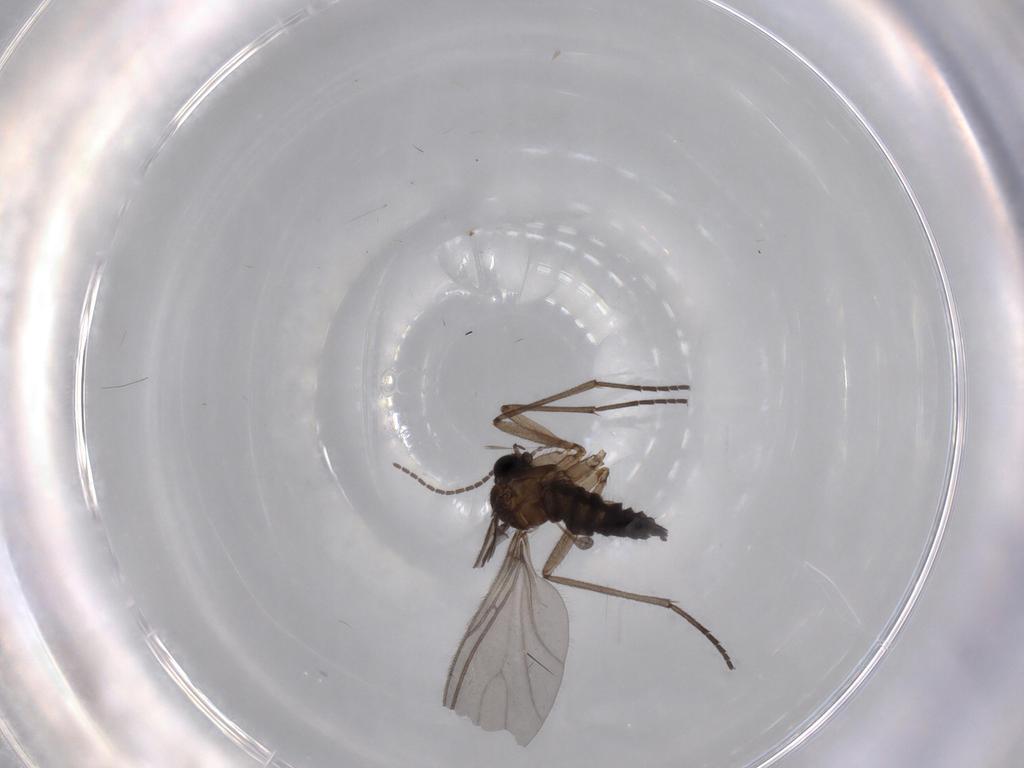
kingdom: Animalia
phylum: Arthropoda
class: Insecta
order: Diptera
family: Sciaridae
